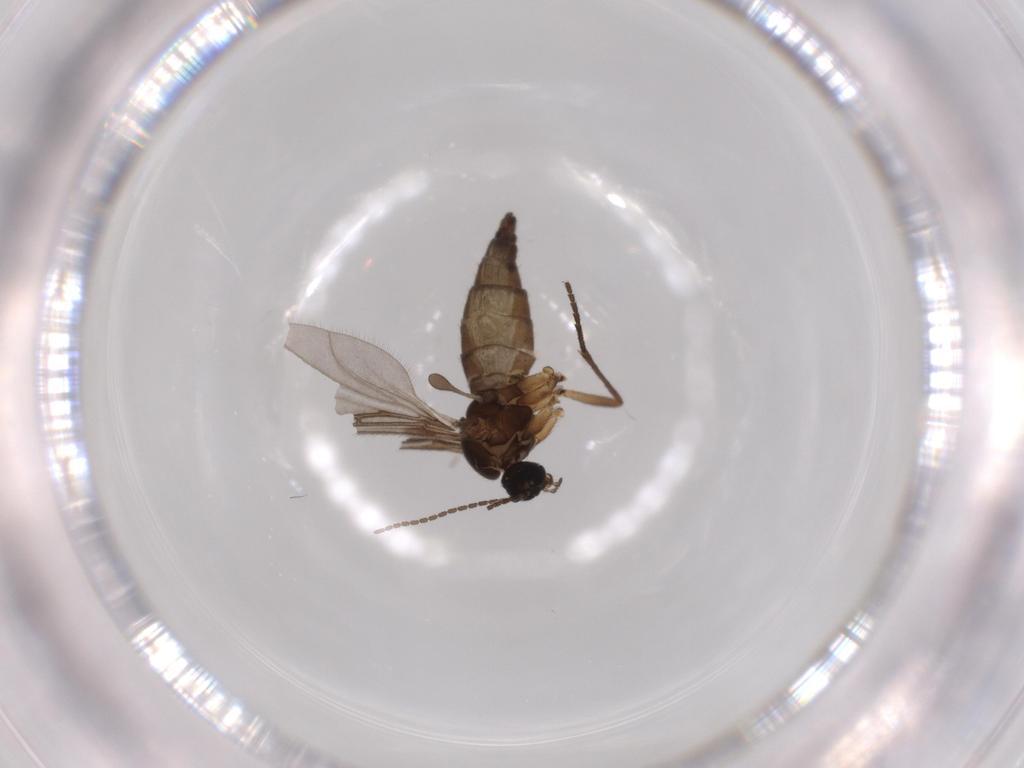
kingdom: Animalia
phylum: Arthropoda
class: Insecta
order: Diptera
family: Sciaridae
